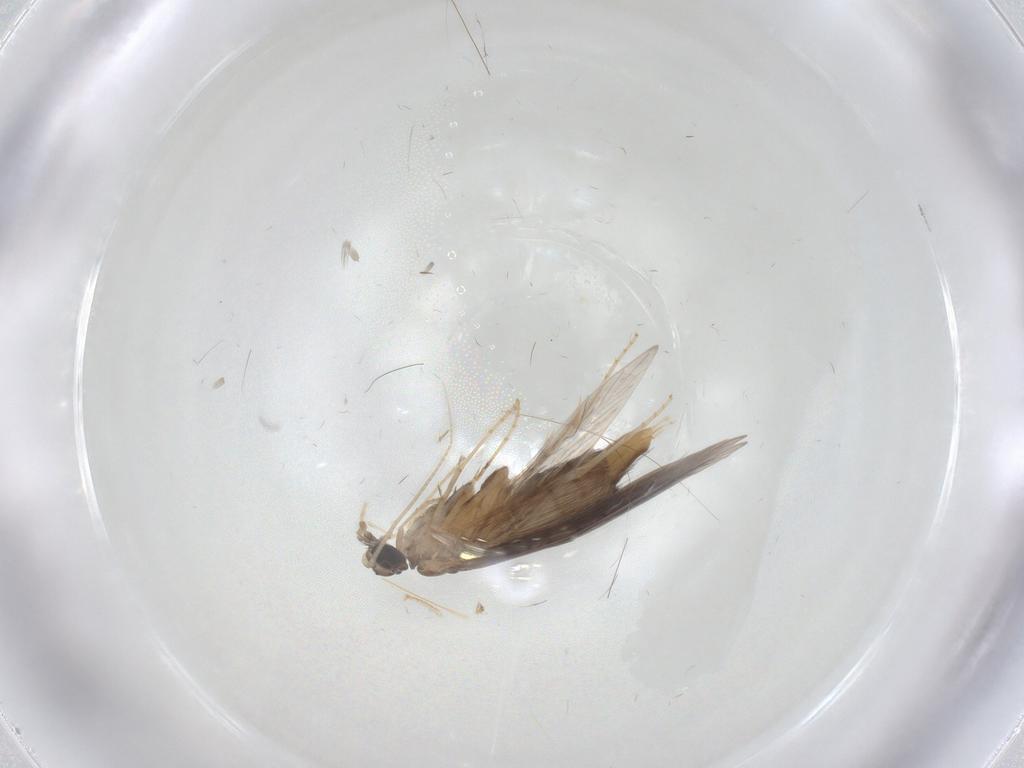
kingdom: Animalia
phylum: Arthropoda
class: Insecta
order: Trichoptera
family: Hydroptilidae
